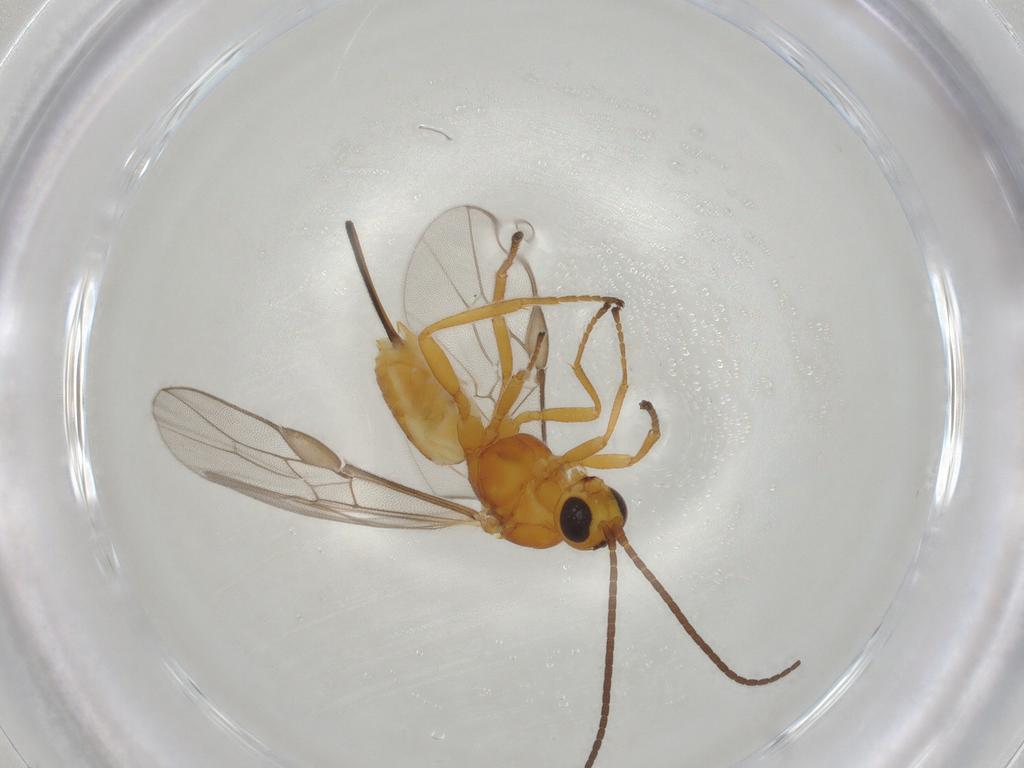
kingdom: Animalia
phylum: Arthropoda
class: Insecta
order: Hymenoptera
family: Braconidae
